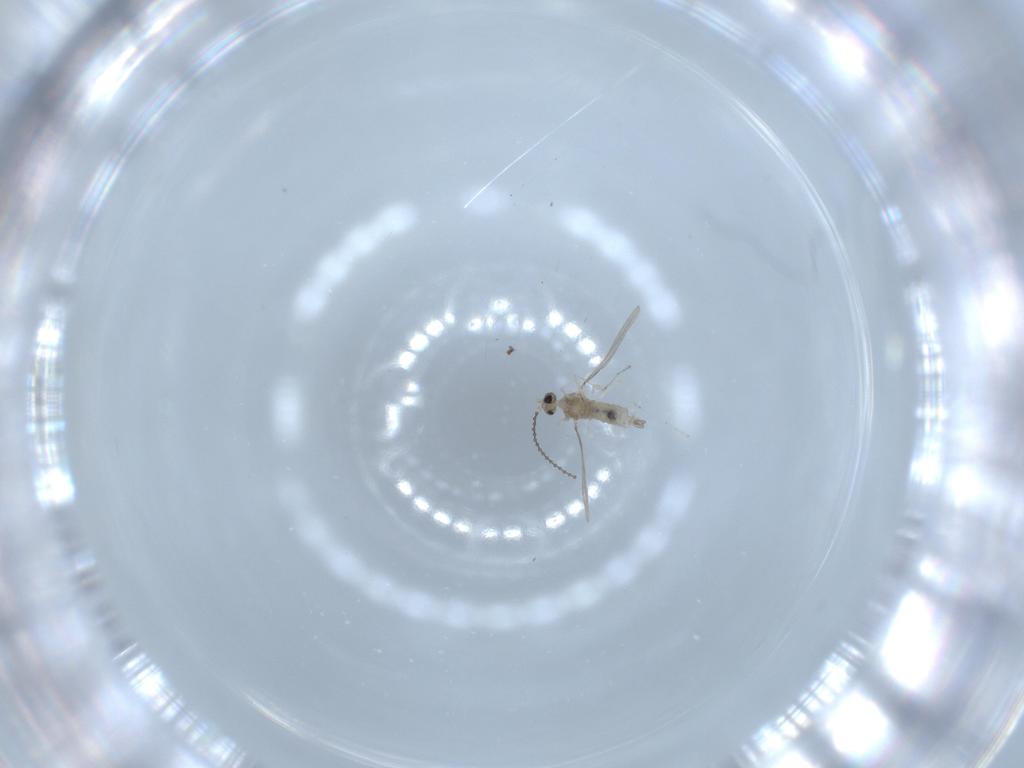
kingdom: Animalia
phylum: Arthropoda
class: Insecta
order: Diptera
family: Cecidomyiidae
